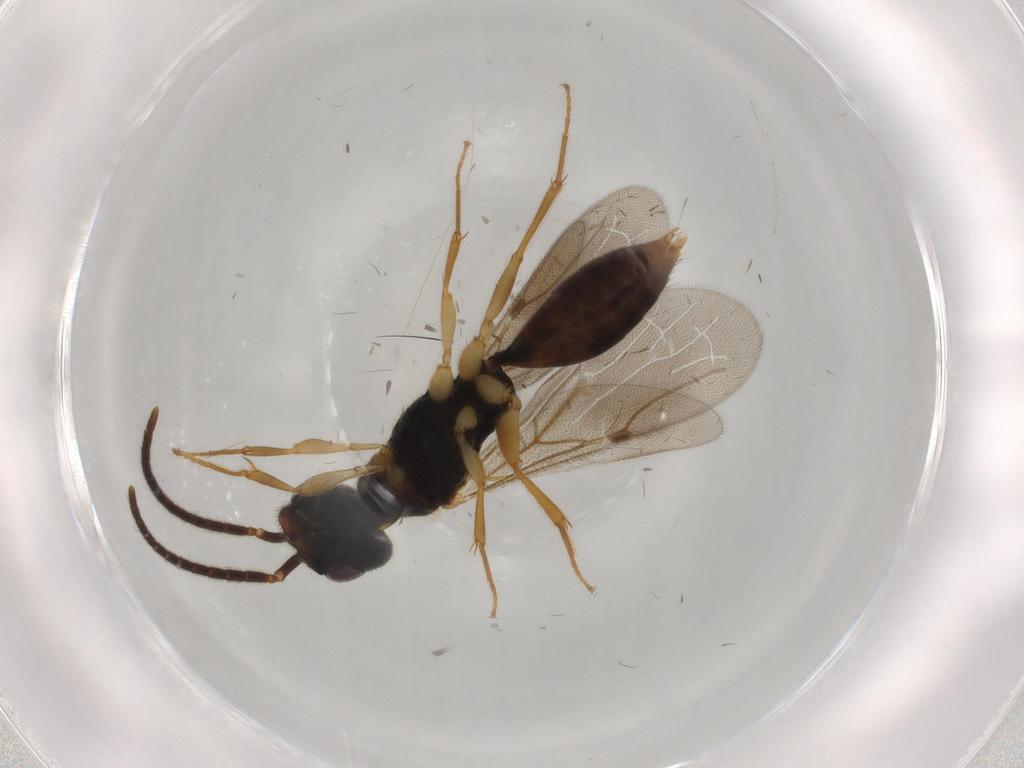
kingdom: Animalia
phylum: Arthropoda
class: Insecta
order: Hymenoptera
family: Bethylidae
